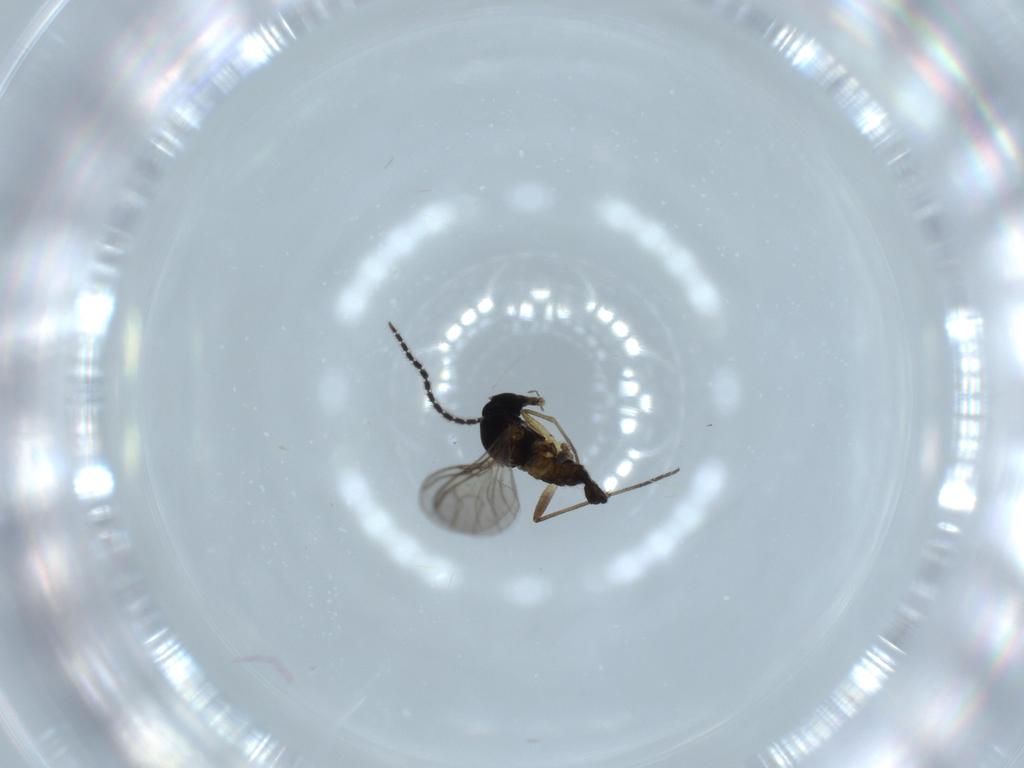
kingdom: Animalia
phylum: Arthropoda
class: Insecta
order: Diptera
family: Sciaridae
